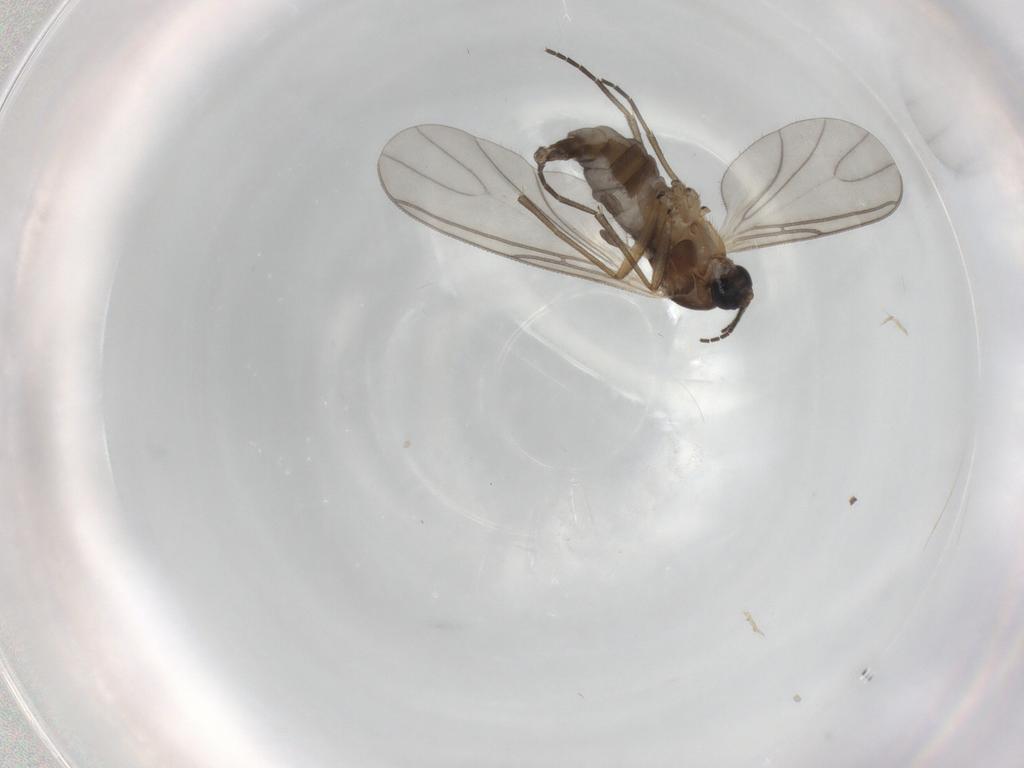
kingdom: Animalia
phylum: Arthropoda
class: Insecta
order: Diptera
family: Sciaridae
